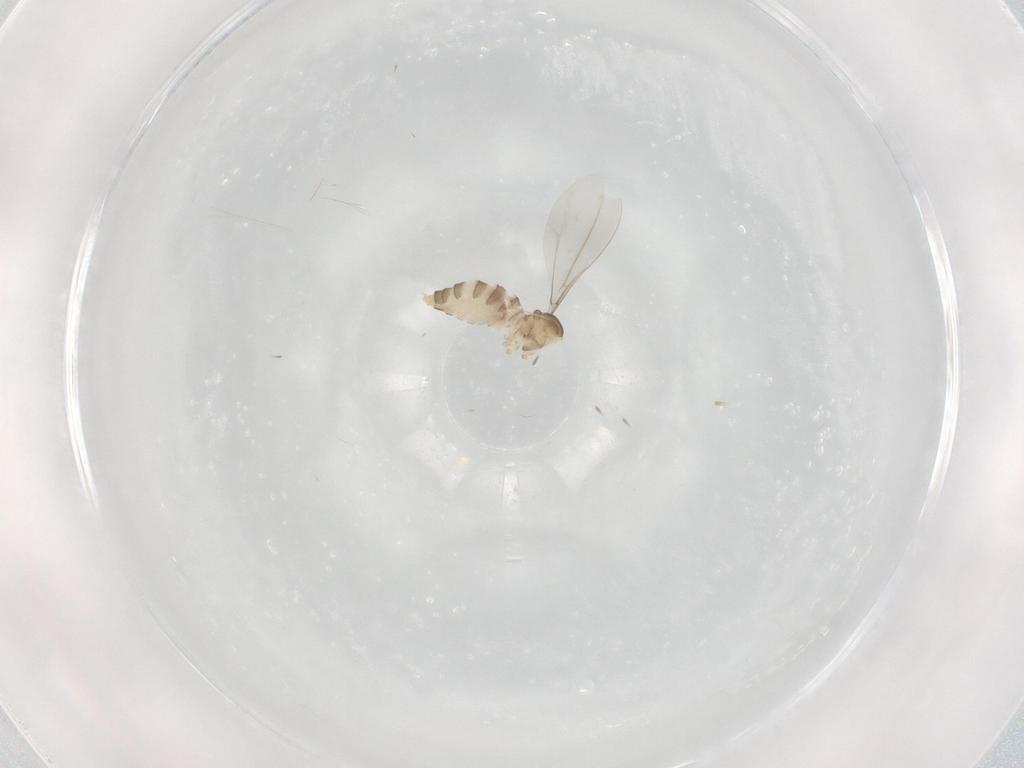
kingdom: Animalia
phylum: Arthropoda
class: Insecta
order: Diptera
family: Cecidomyiidae
